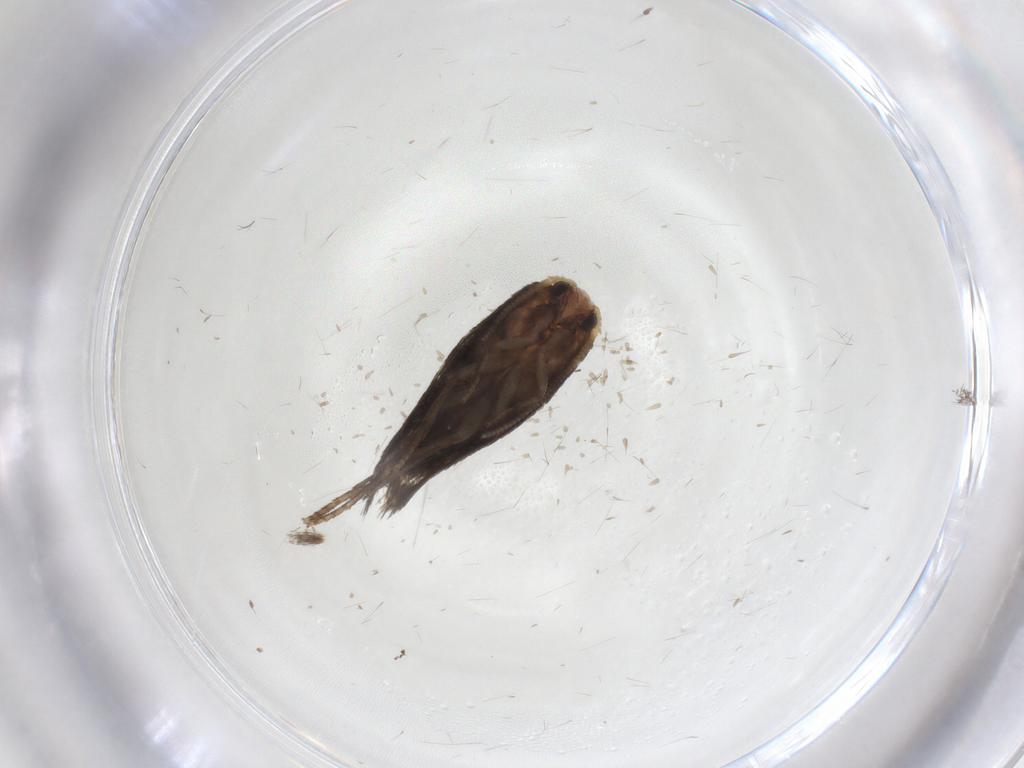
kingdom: Animalia
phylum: Arthropoda
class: Insecta
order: Lepidoptera
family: Nepticulidae
